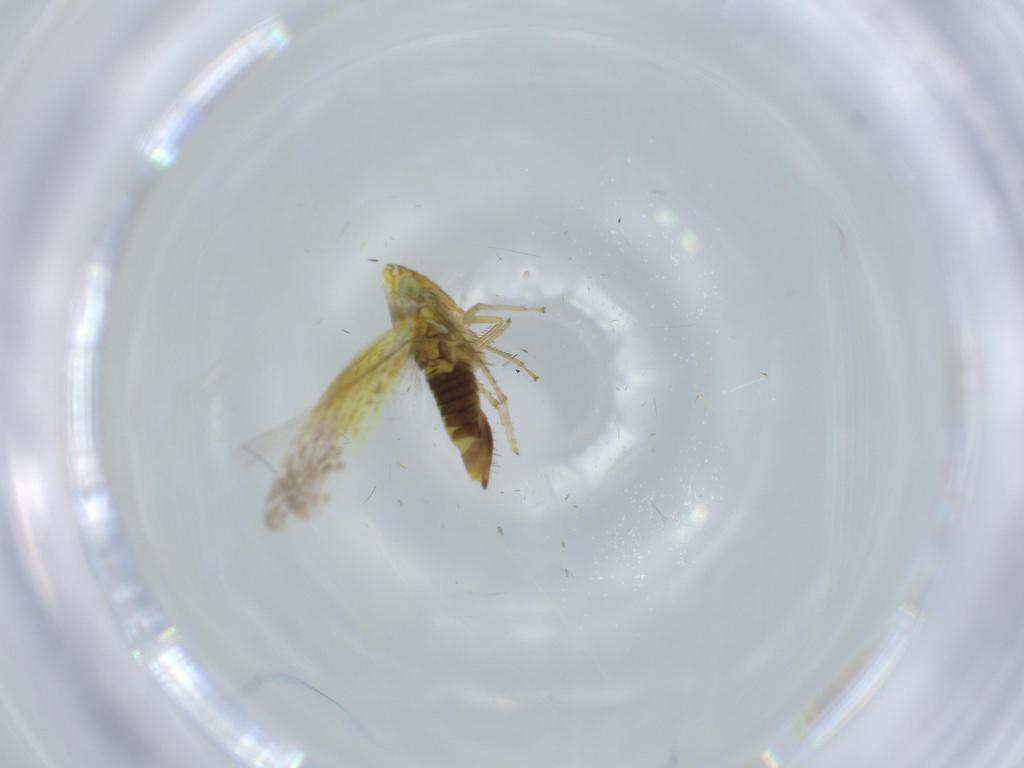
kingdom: Animalia
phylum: Arthropoda
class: Insecta
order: Hemiptera
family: Cicadellidae
